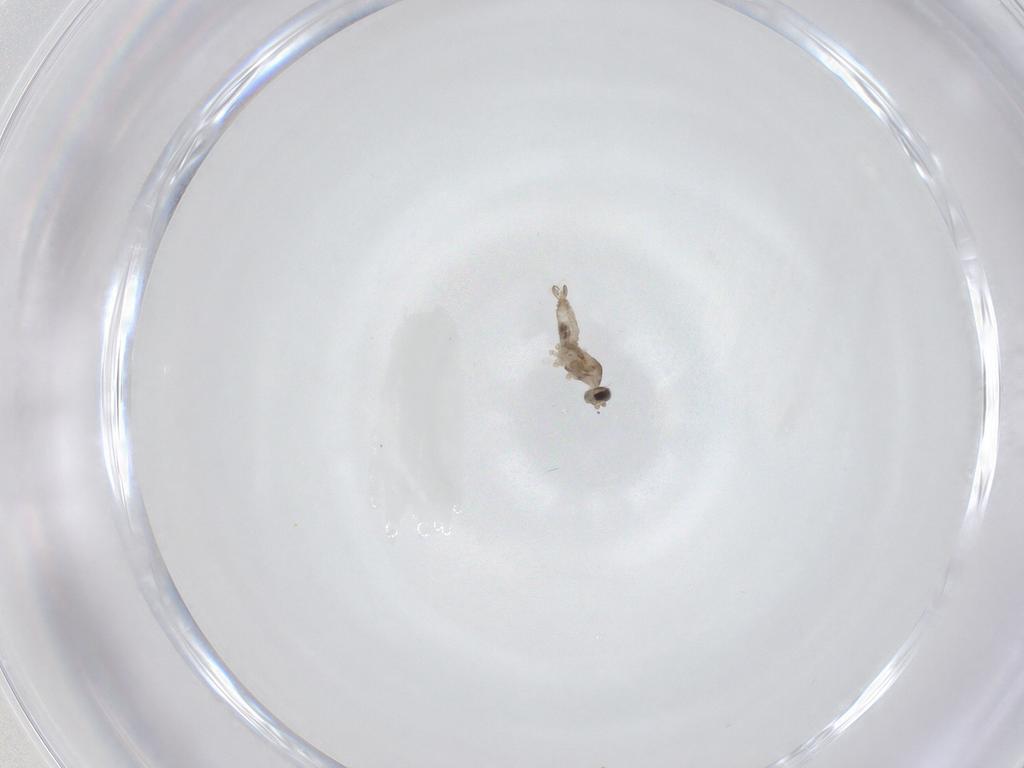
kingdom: Animalia
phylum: Arthropoda
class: Insecta
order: Diptera
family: Cecidomyiidae
